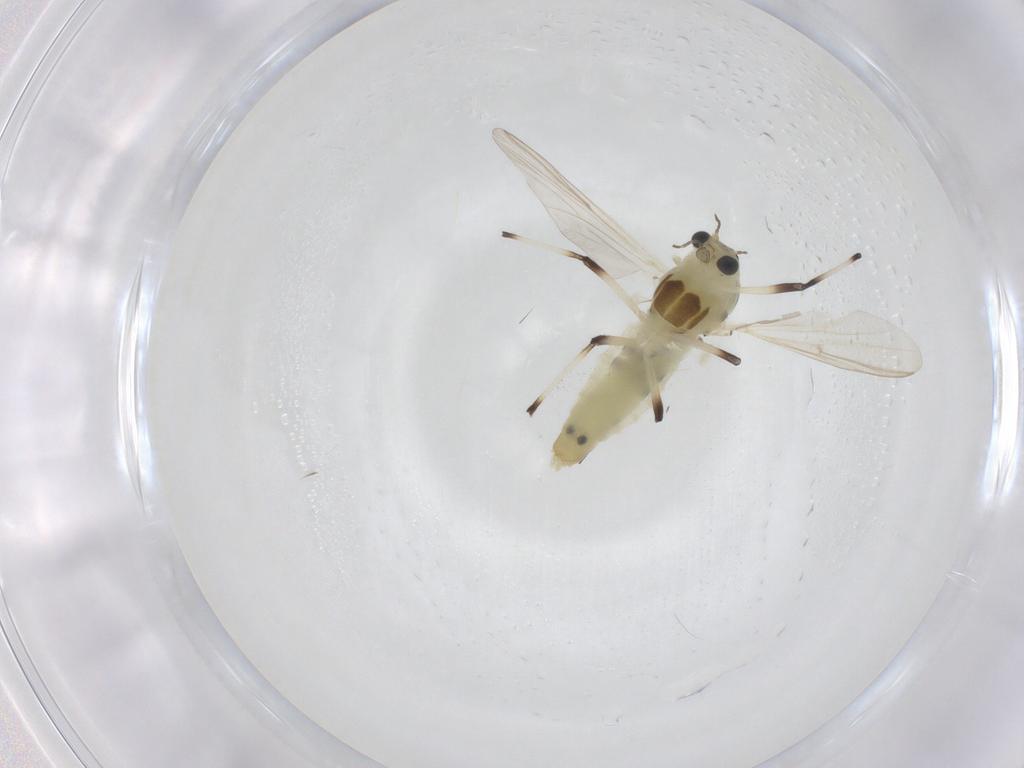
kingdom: Animalia
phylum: Arthropoda
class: Insecta
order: Diptera
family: Chironomidae
